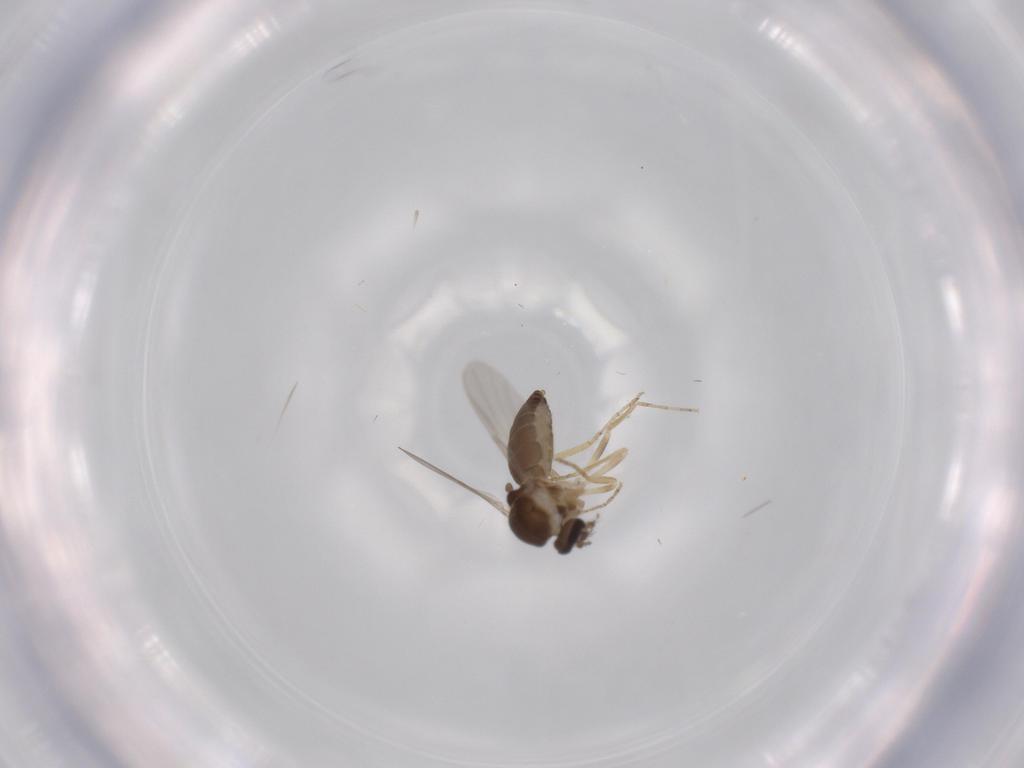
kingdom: Animalia
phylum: Arthropoda
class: Insecta
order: Diptera
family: Ceratopogonidae
